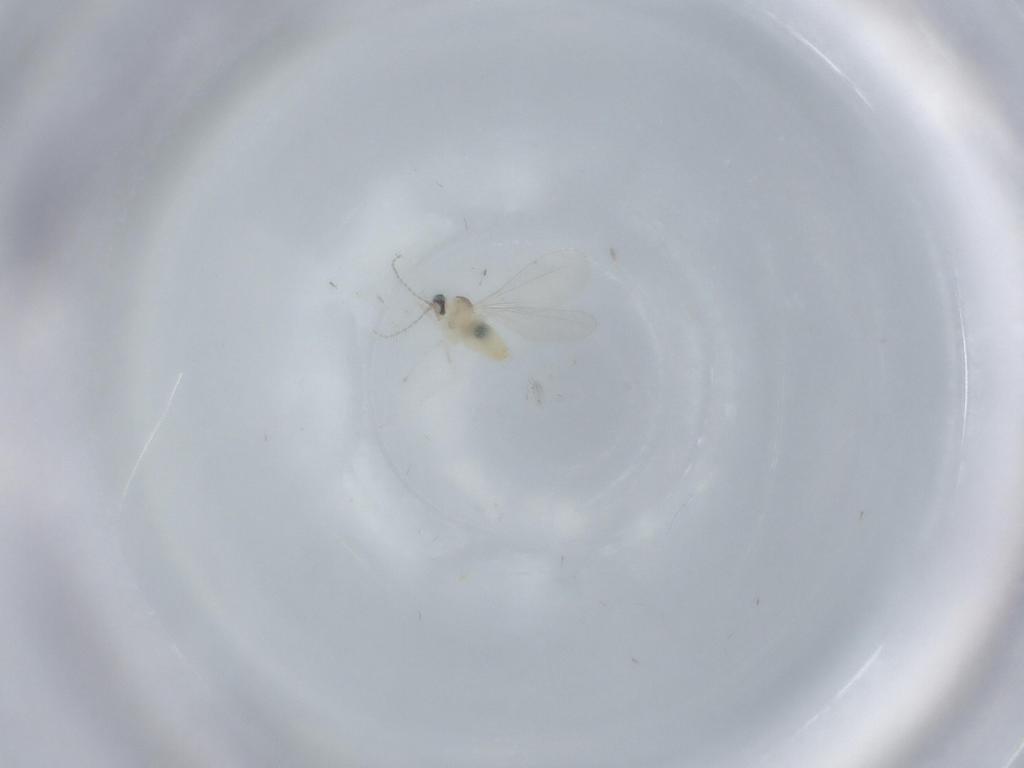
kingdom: Animalia
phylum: Arthropoda
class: Insecta
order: Diptera
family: Cecidomyiidae
